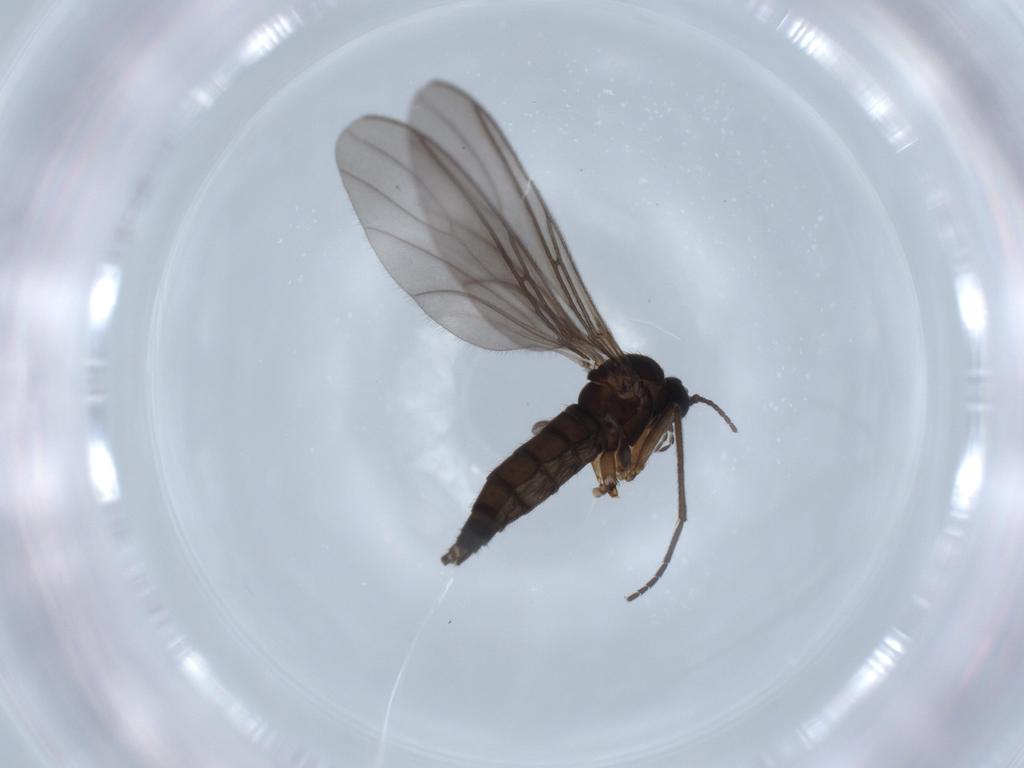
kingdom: Animalia
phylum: Arthropoda
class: Insecta
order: Diptera
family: Sciaridae
